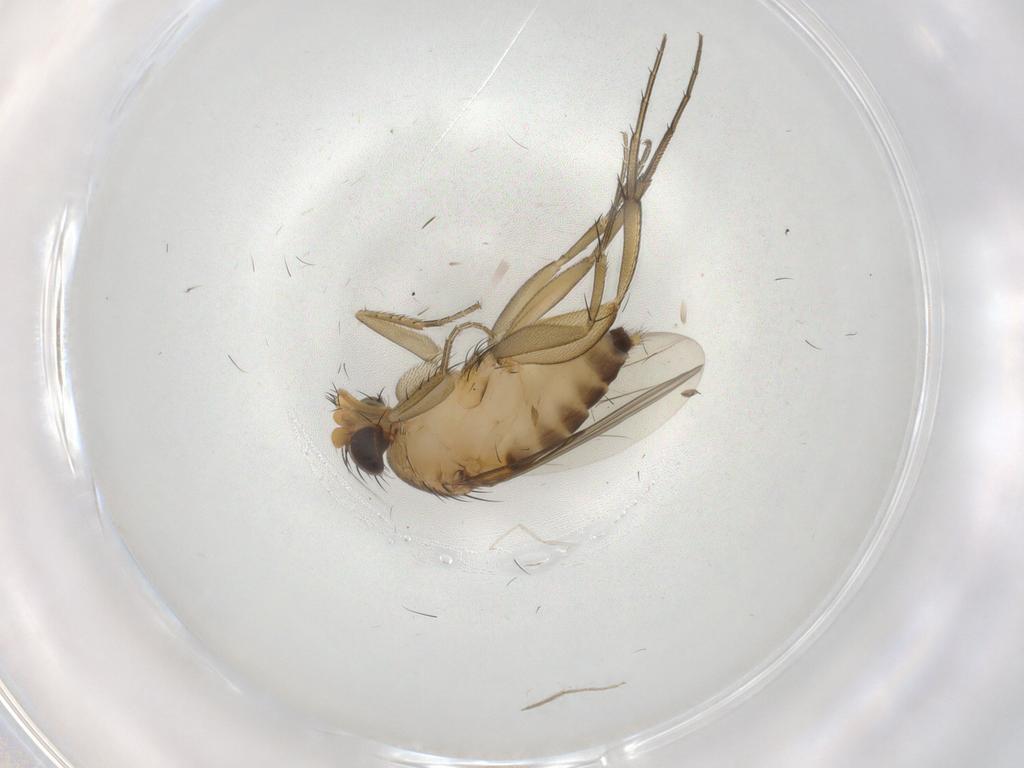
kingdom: Animalia
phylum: Arthropoda
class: Insecta
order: Diptera
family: Phoridae
